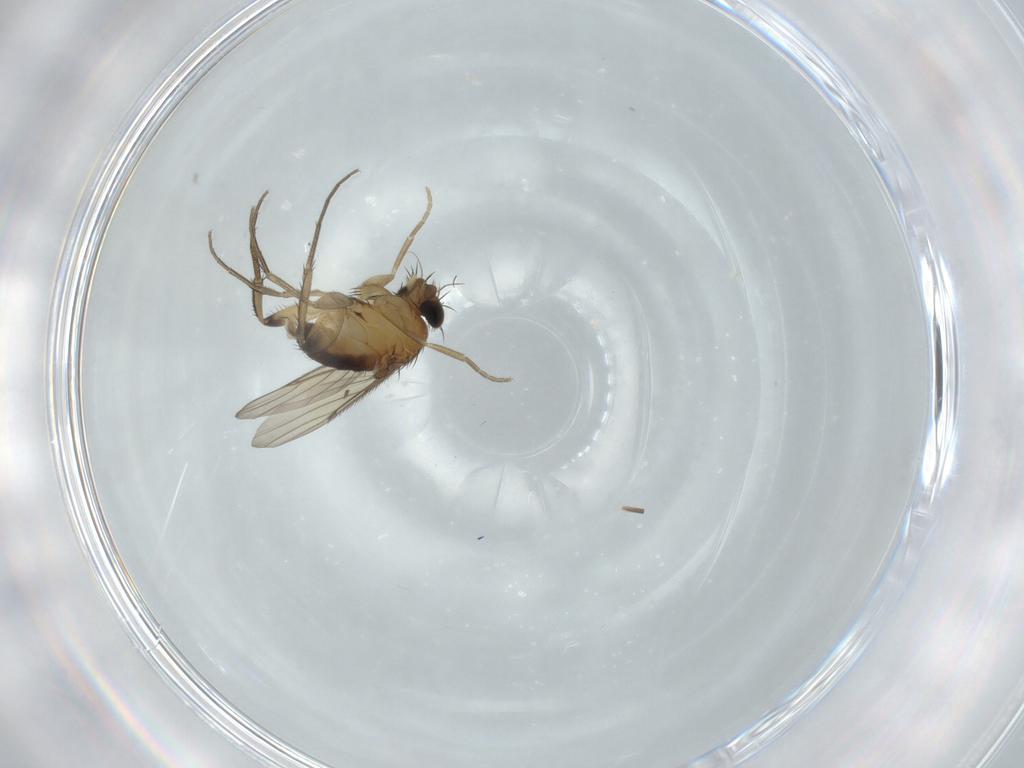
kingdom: Animalia
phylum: Arthropoda
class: Insecta
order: Diptera
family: Phoridae
